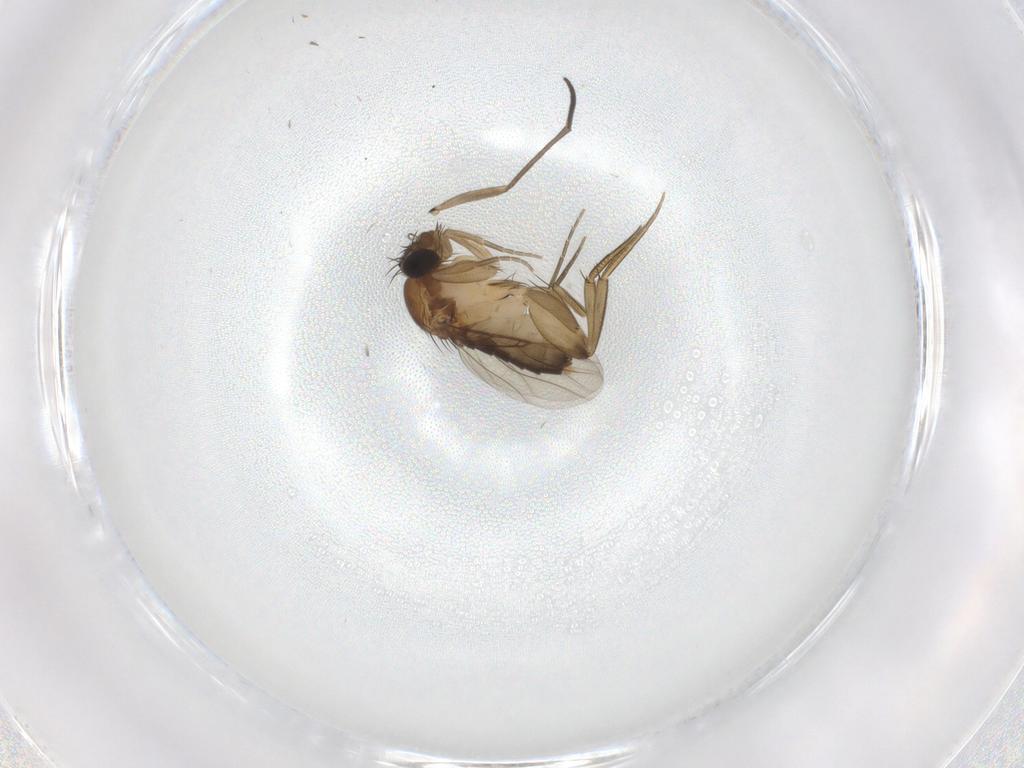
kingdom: Animalia
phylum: Arthropoda
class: Insecta
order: Diptera
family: Phoridae
